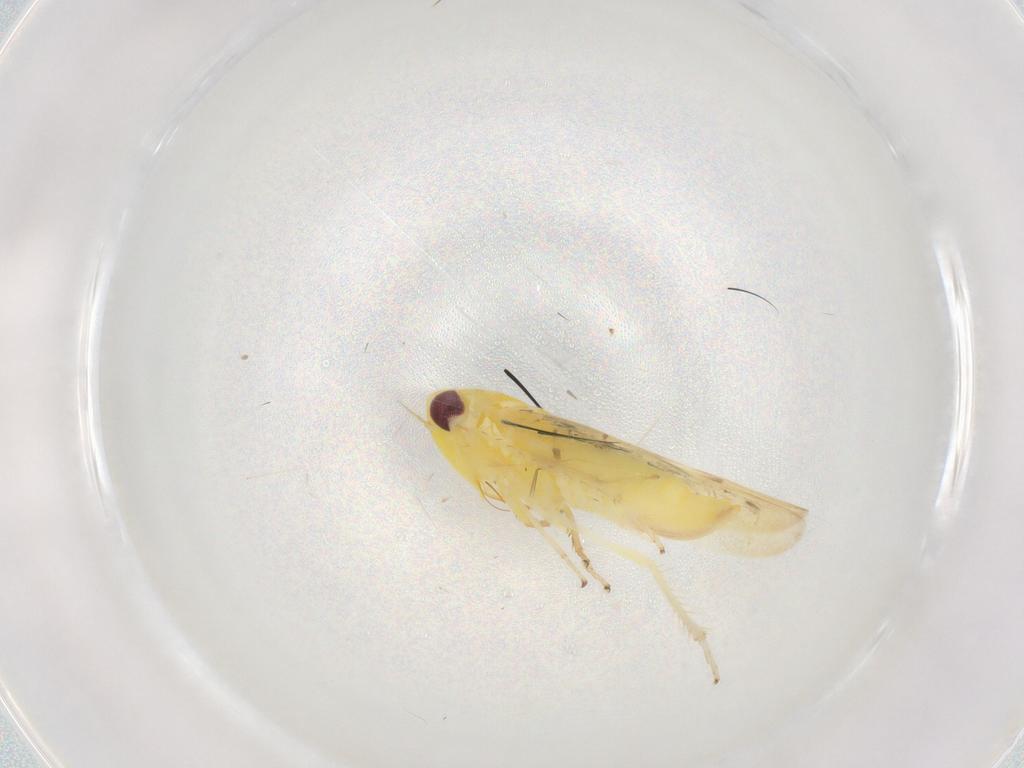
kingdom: Animalia
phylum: Arthropoda
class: Insecta
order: Hemiptera
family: Cicadellidae
